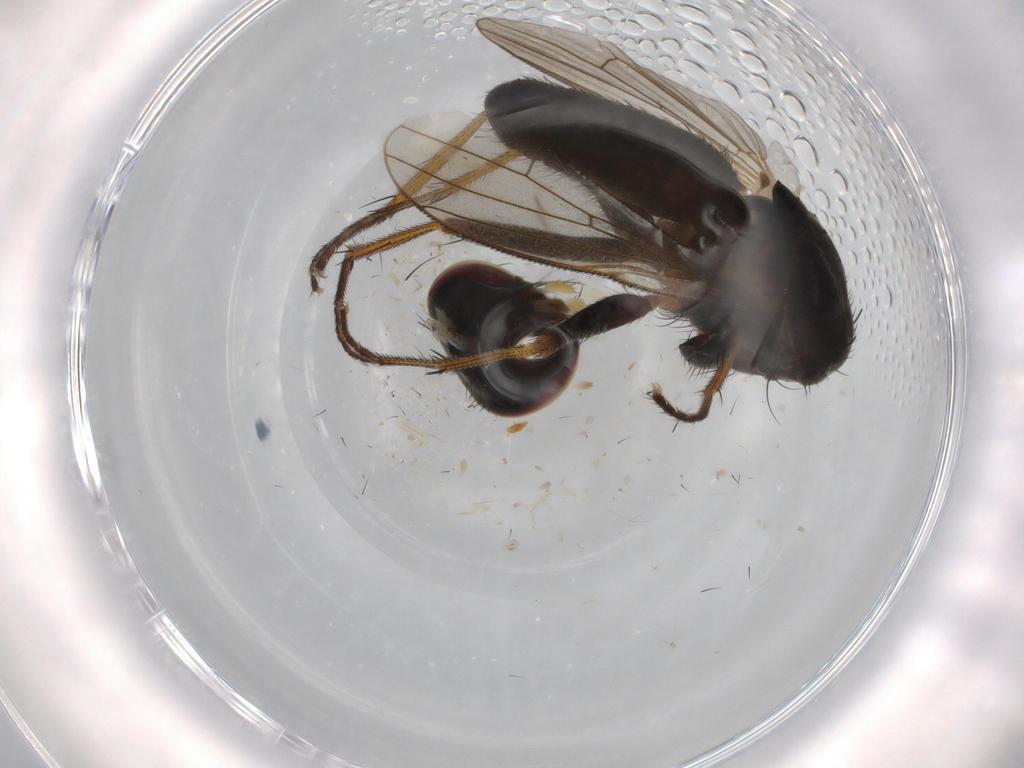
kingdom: Animalia
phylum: Arthropoda
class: Insecta
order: Diptera
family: Muscidae
